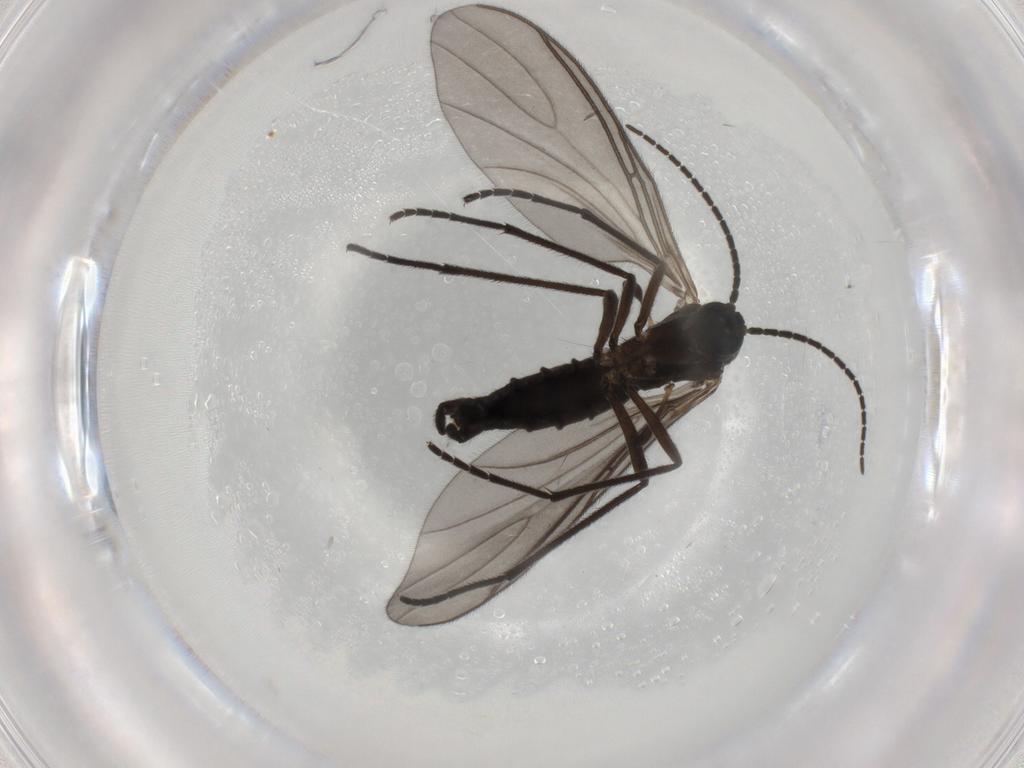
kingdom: Animalia
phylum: Arthropoda
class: Insecta
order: Diptera
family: Sciaridae
